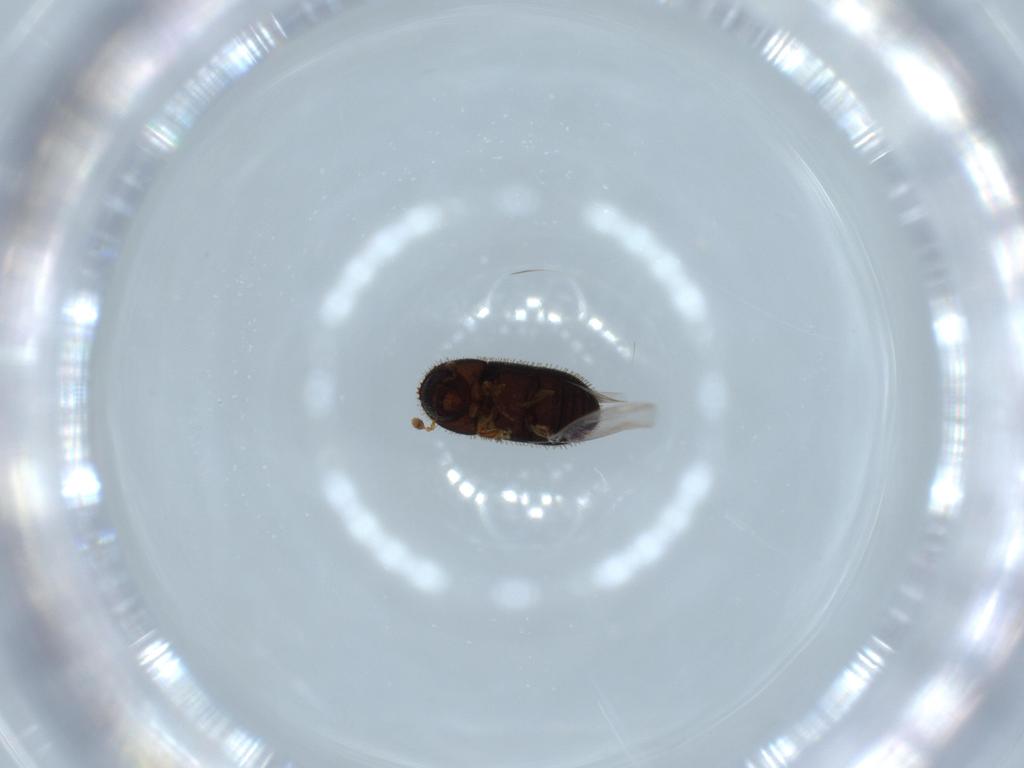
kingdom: Animalia
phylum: Arthropoda
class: Insecta
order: Coleoptera
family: Curculionidae
